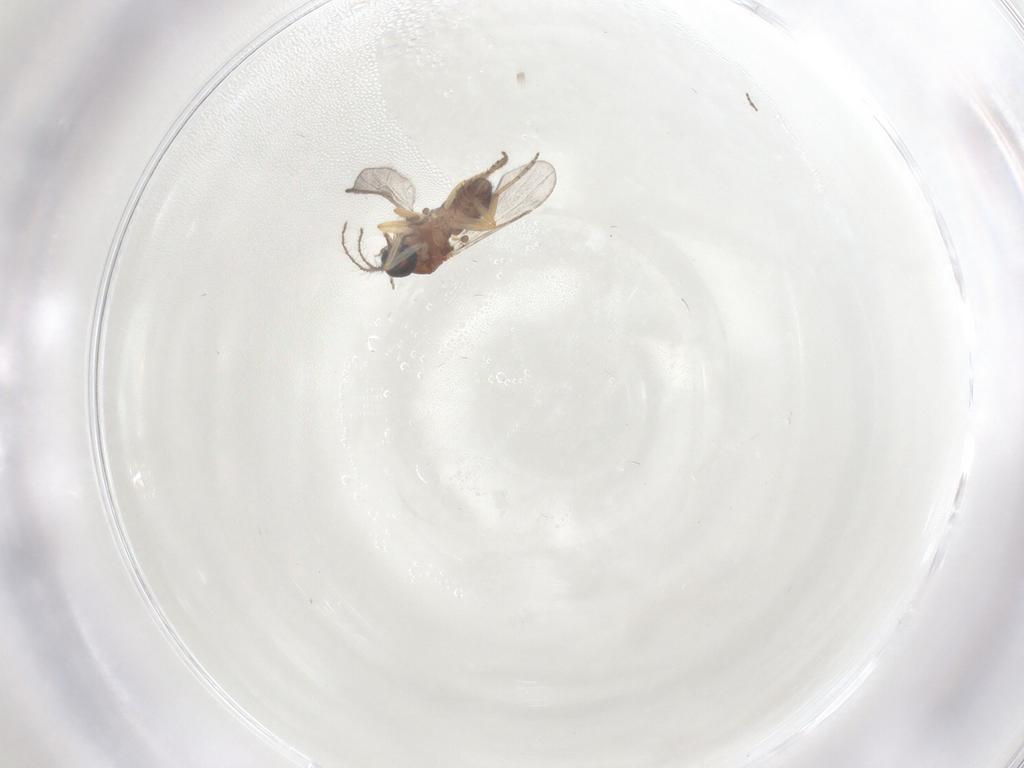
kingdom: Animalia
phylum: Arthropoda
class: Insecta
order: Diptera
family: Ceratopogonidae
